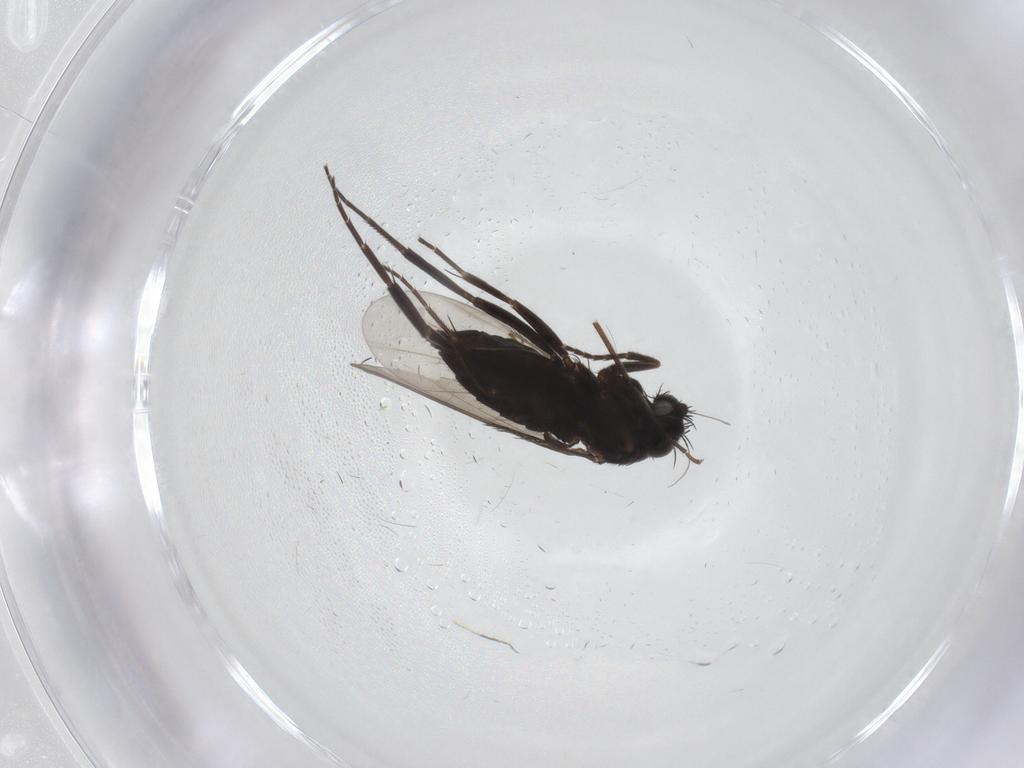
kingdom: Animalia
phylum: Arthropoda
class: Insecta
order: Diptera
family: Phoridae
